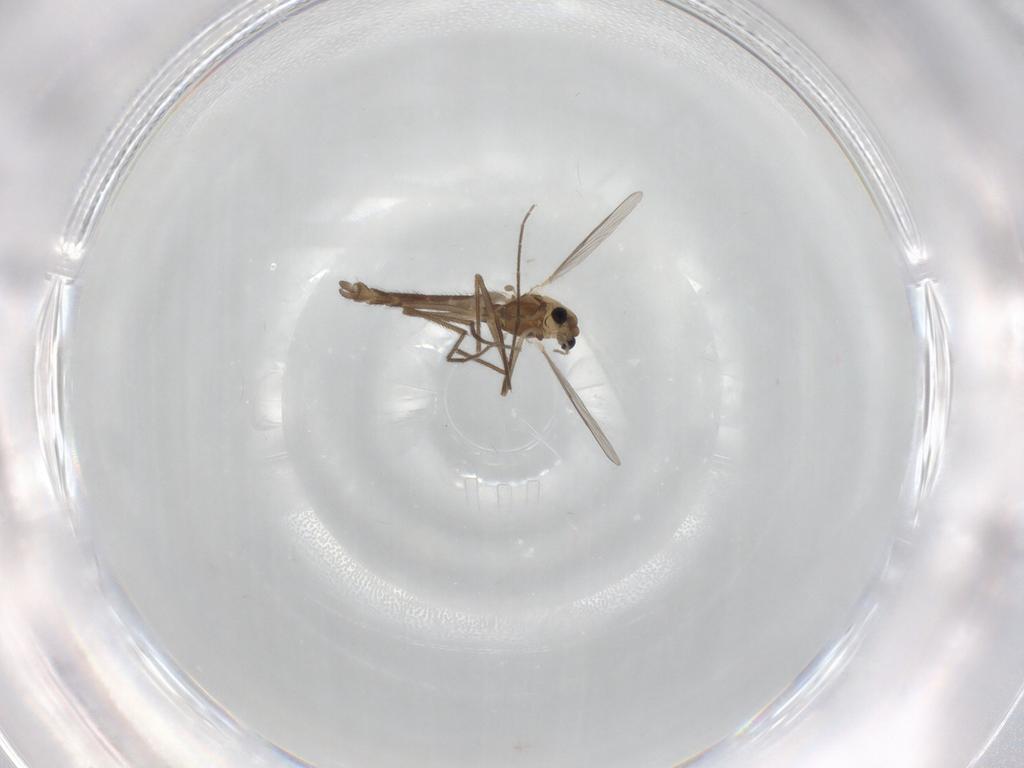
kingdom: Animalia
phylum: Arthropoda
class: Insecta
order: Diptera
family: Chironomidae
